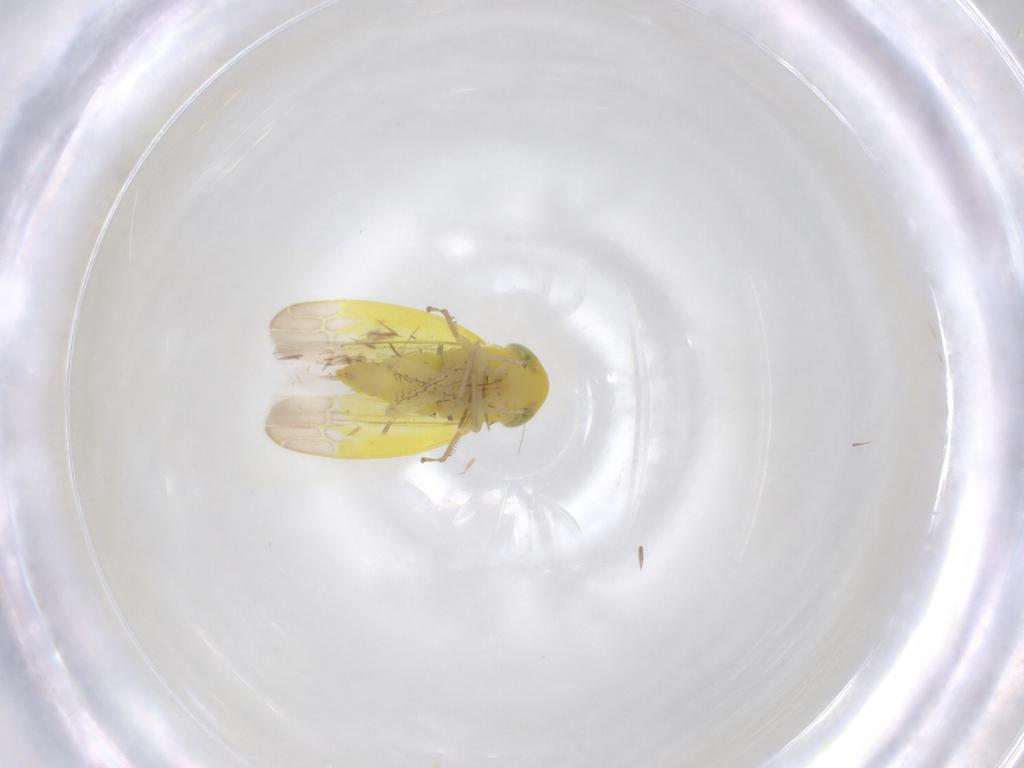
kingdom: Animalia
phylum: Arthropoda
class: Insecta
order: Hemiptera
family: Cicadellidae
